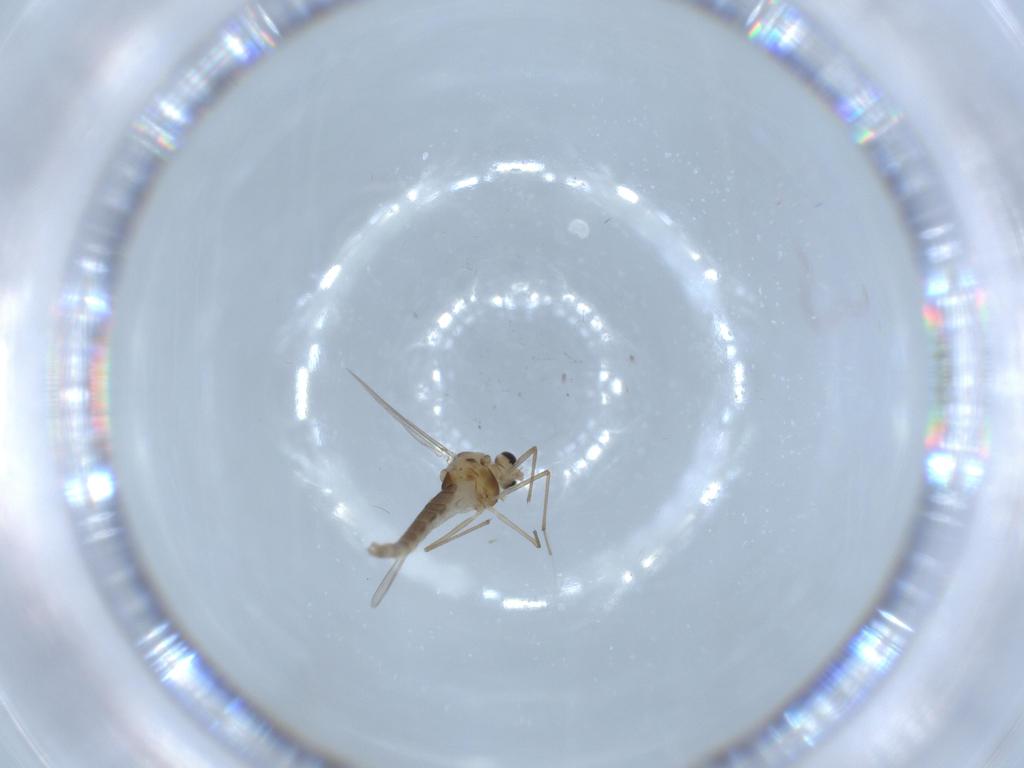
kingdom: Animalia
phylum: Arthropoda
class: Insecta
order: Diptera
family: Chironomidae
